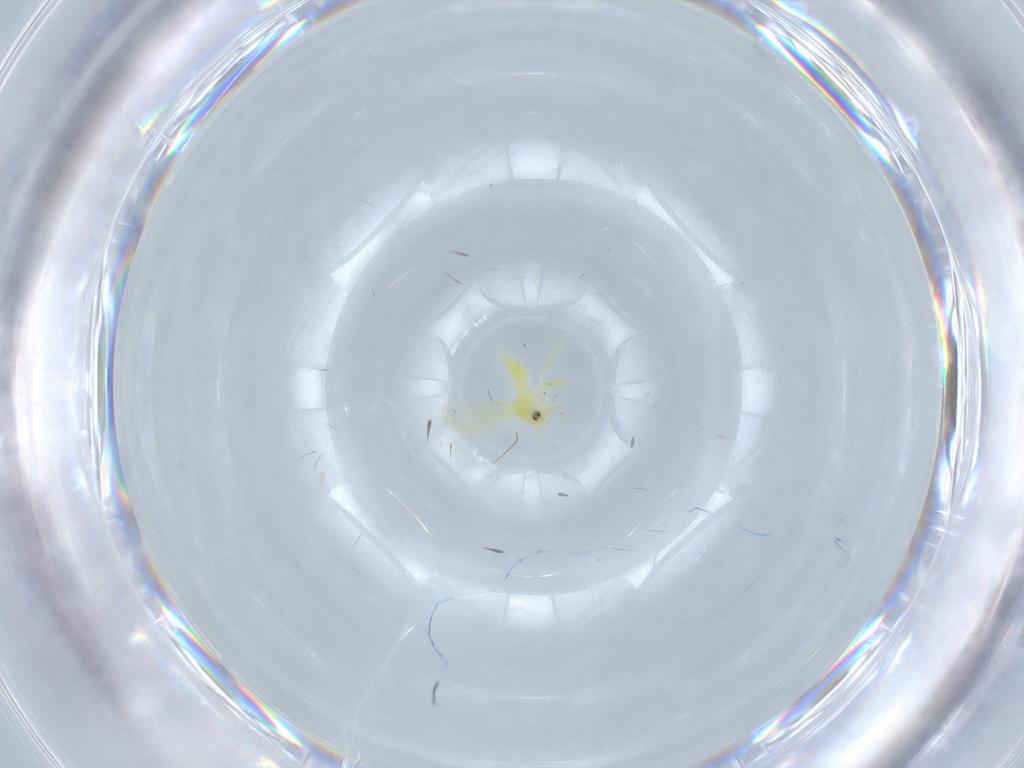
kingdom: Animalia
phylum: Arthropoda
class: Insecta
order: Hemiptera
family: Aleyrodidae
